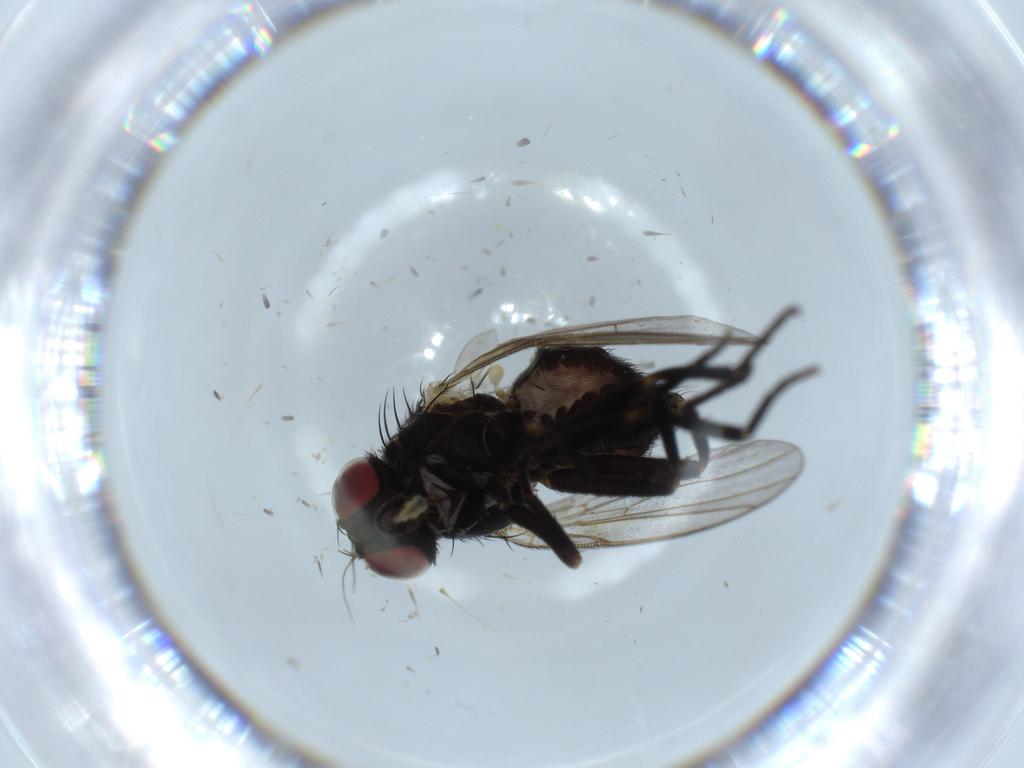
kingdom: Animalia
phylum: Arthropoda
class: Insecta
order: Diptera
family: Agromyzidae
